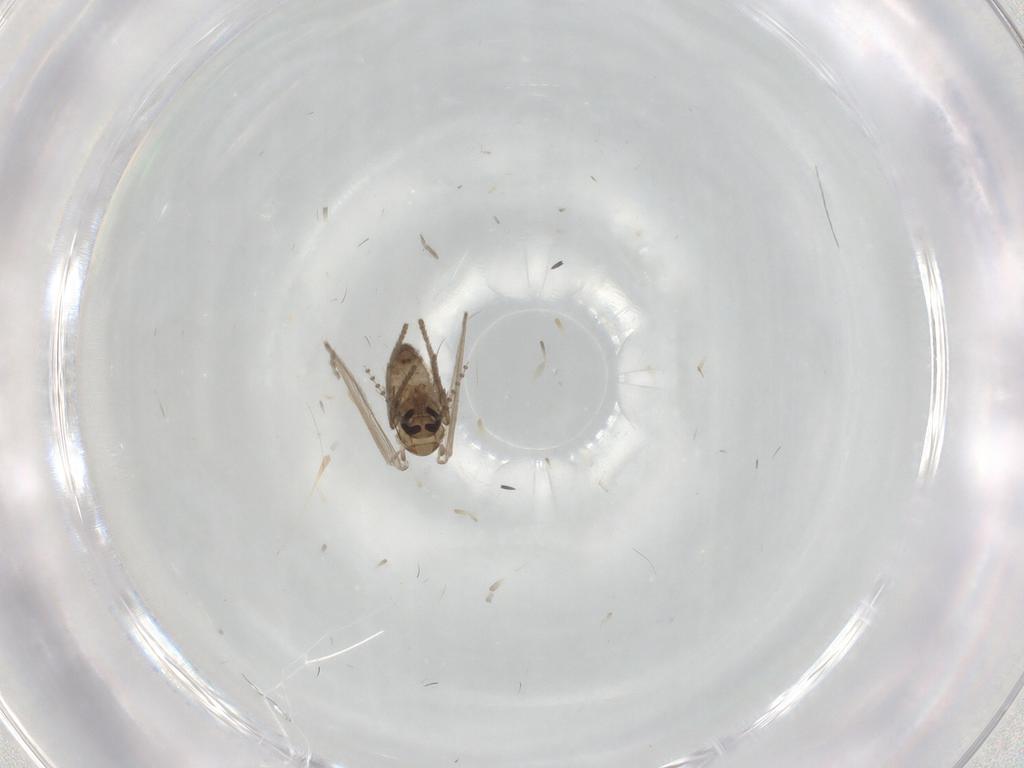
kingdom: Animalia
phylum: Arthropoda
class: Insecta
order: Diptera
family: Psychodidae
